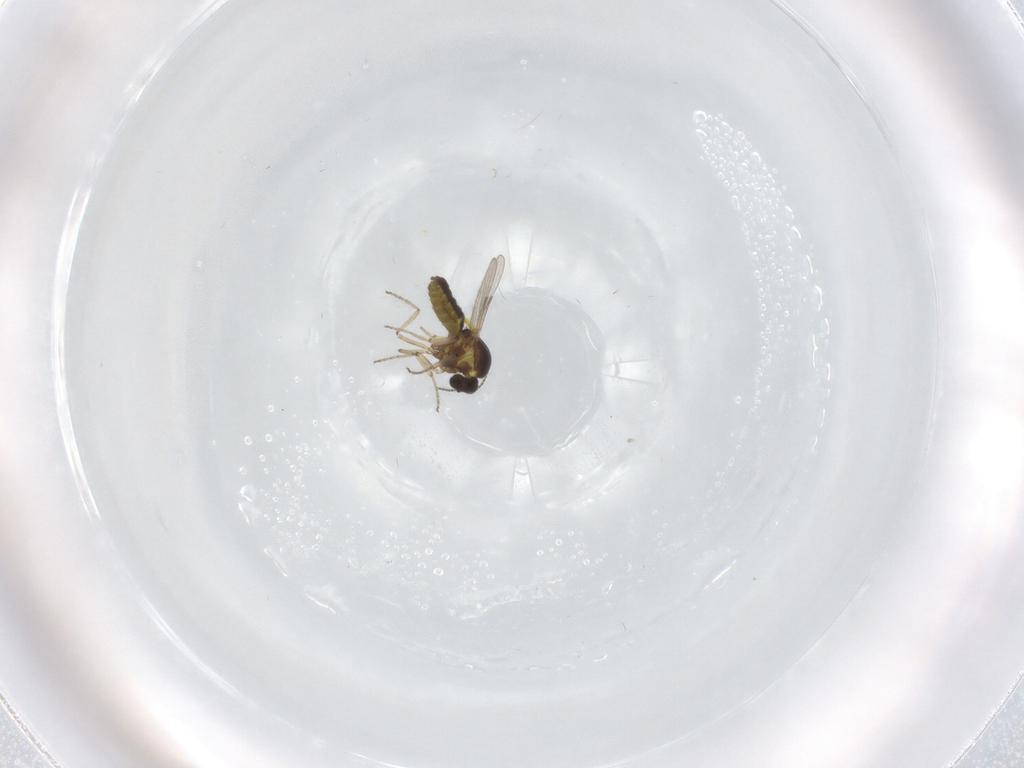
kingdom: Animalia
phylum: Arthropoda
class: Insecta
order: Diptera
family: Ceratopogonidae
